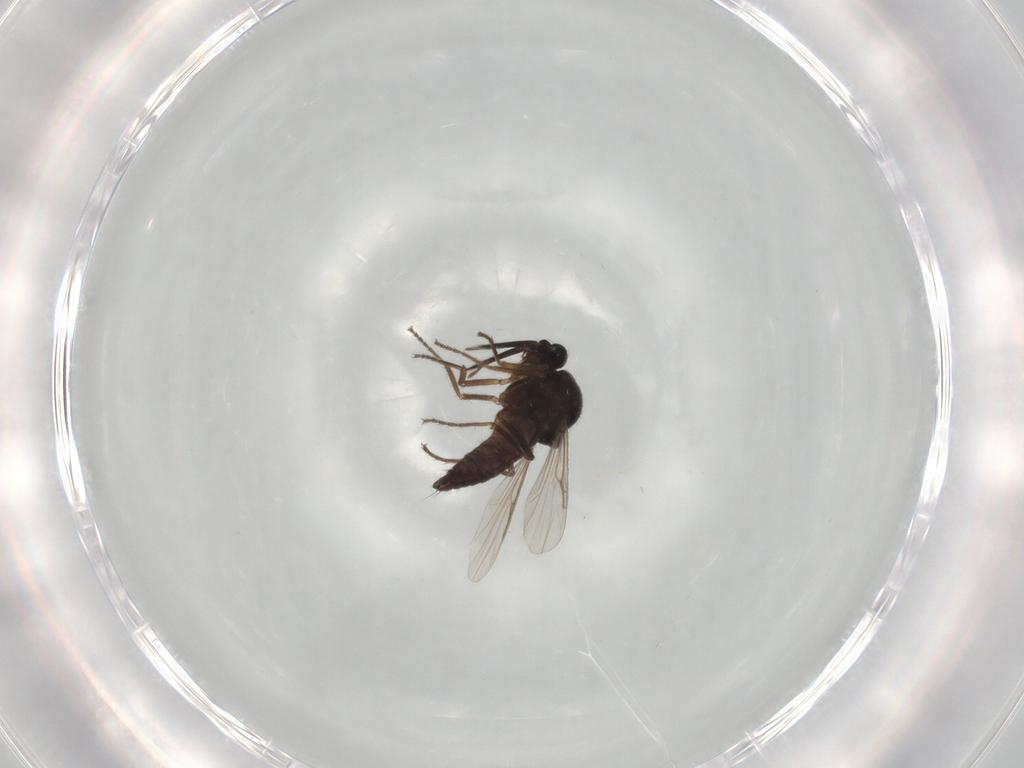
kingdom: Animalia
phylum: Arthropoda
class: Insecta
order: Diptera
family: Ceratopogonidae
